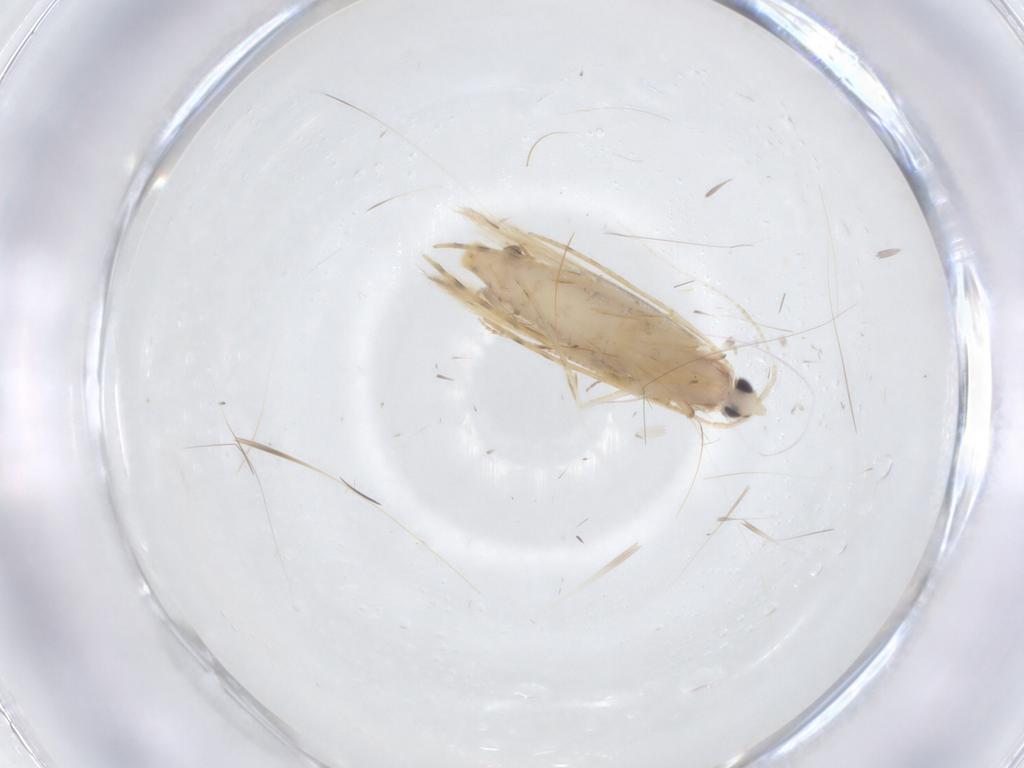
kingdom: Animalia
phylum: Arthropoda
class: Insecta
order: Lepidoptera
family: Tineidae
